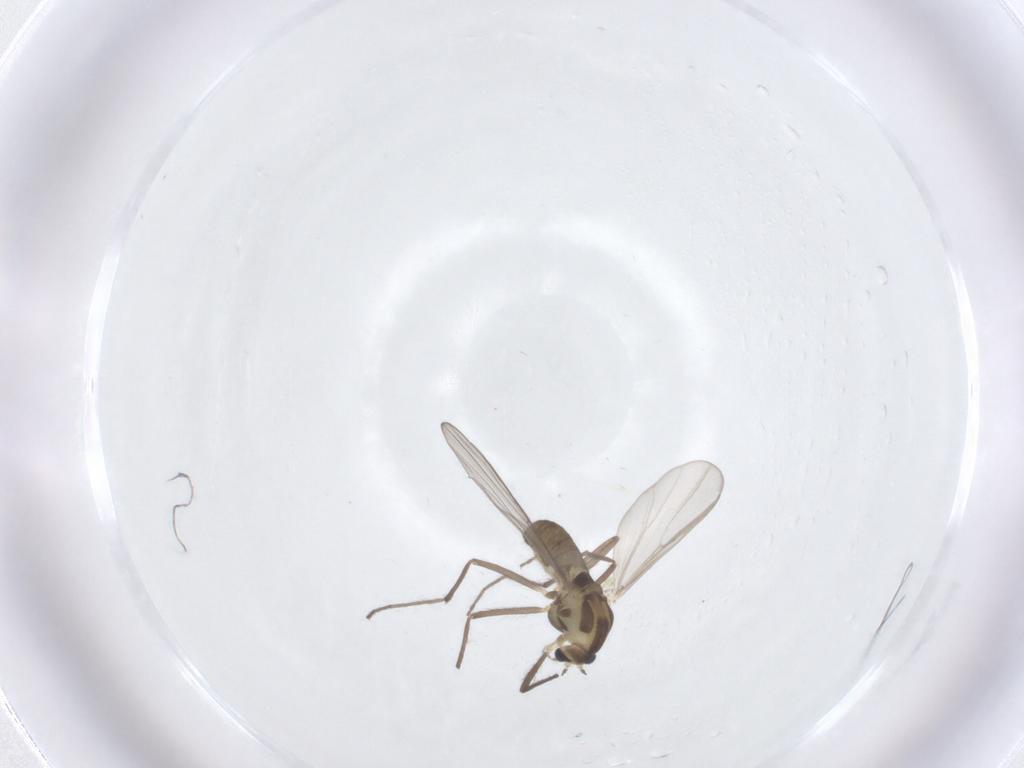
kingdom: Animalia
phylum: Arthropoda
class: Insecta
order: Diptera
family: Chironomidae
